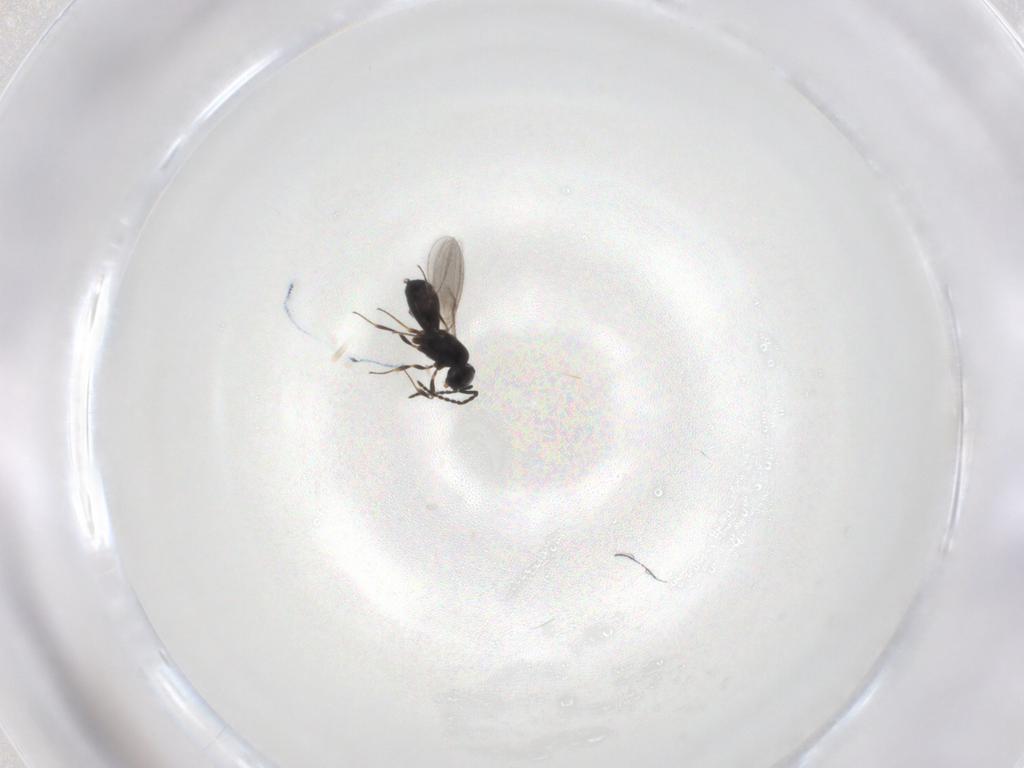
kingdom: Animalia
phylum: Arthropoda
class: Insecta
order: Hymenoptera
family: Scelionidae
